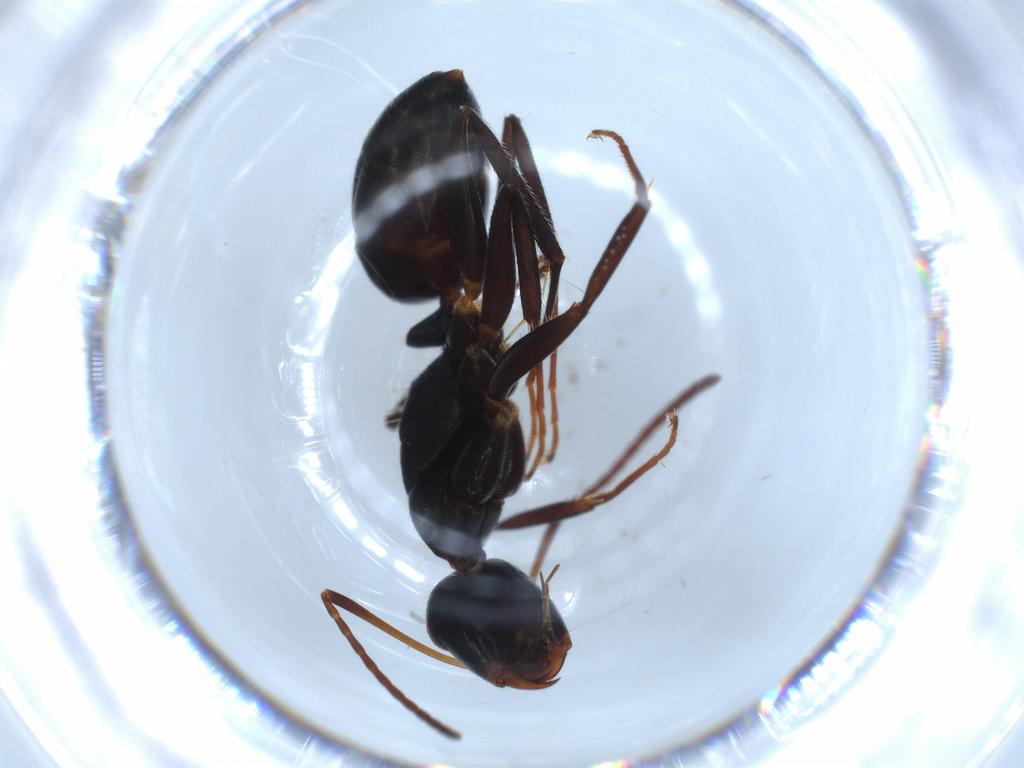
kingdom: Animalia
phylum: Arthropoda
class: Insecta
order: Hymenoptera
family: Formicidae
